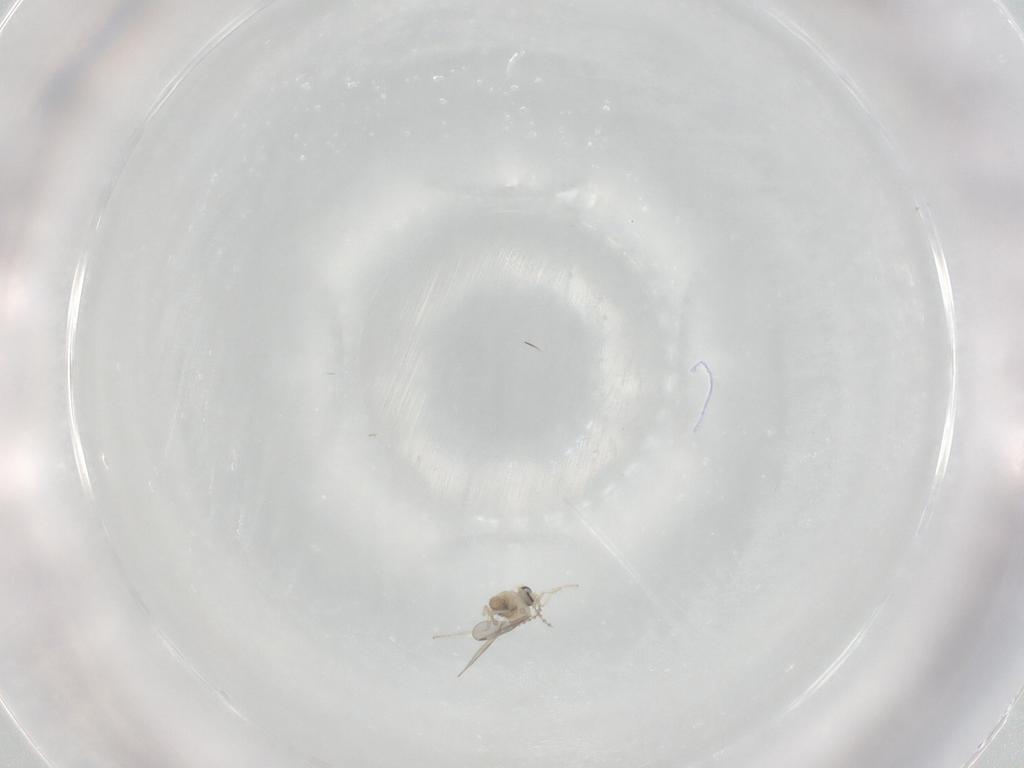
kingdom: Animalia
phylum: Arthropoda
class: Insecta
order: Diptera
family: Cecidomyiidae
